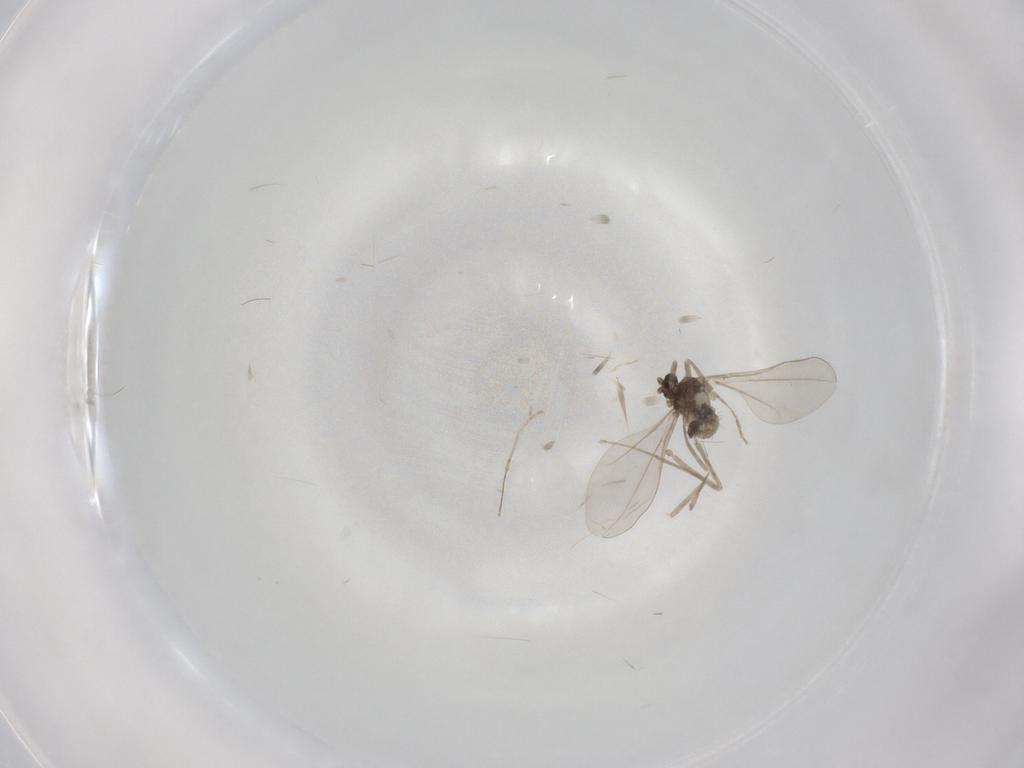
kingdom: Animalia
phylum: Arthropoda
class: Insecta
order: Diptera
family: Cecidomyiidae
